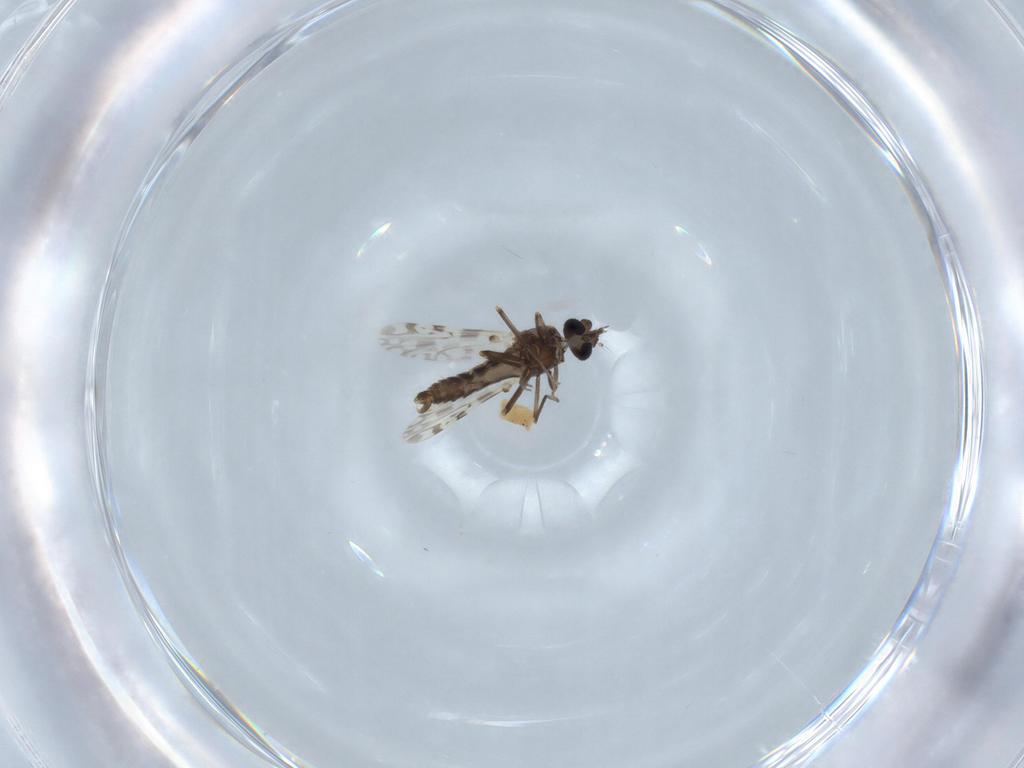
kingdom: Animalia
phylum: Arthropoda
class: Insecta
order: Diptera
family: Ceratopogonidae
